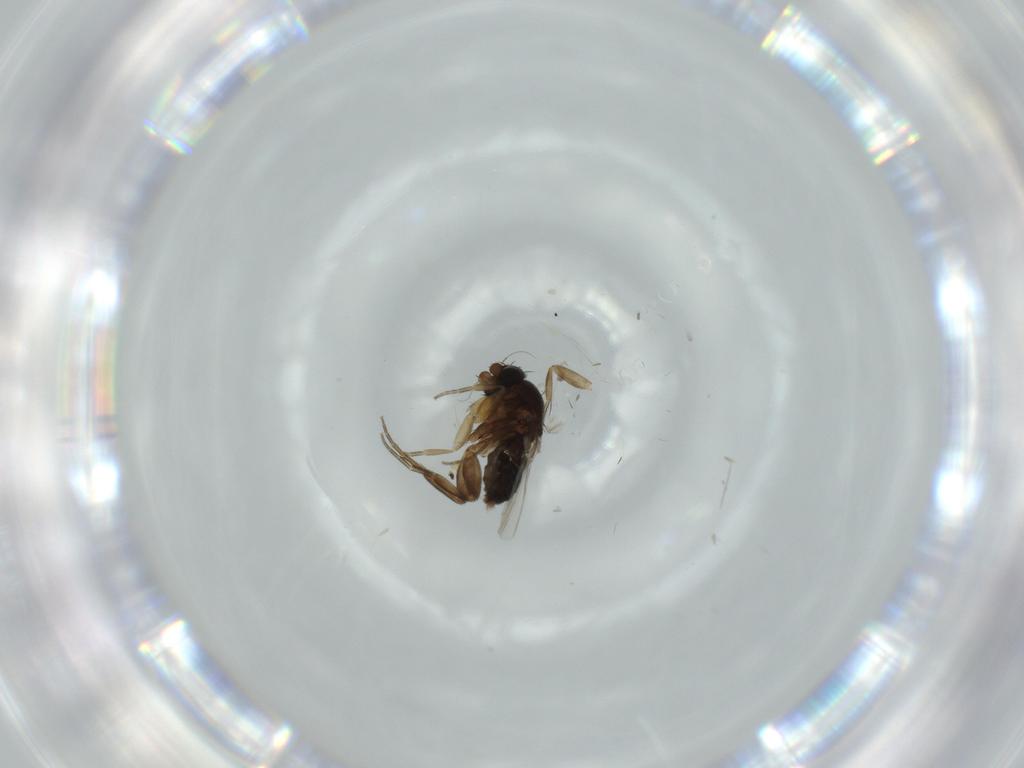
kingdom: Animalia
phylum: Arthropoda
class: Insecta
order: Diptera
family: Phoridae
